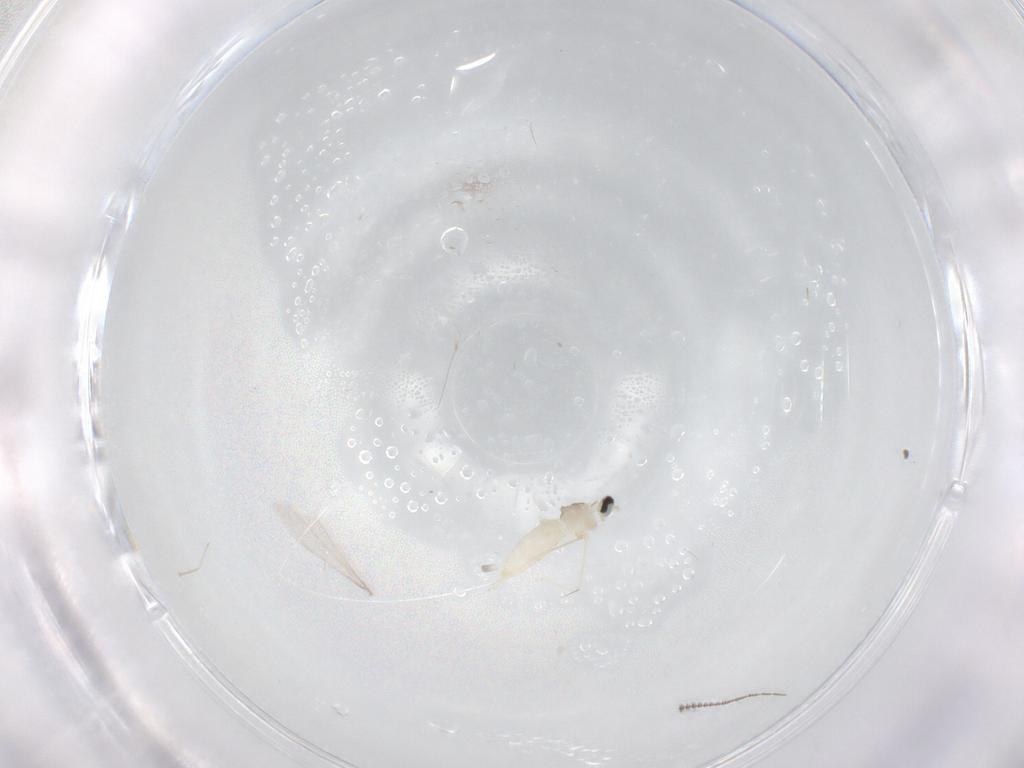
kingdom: Animalia
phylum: Arthropoda
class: Insecta
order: Diptera
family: Cecidomyiidae
